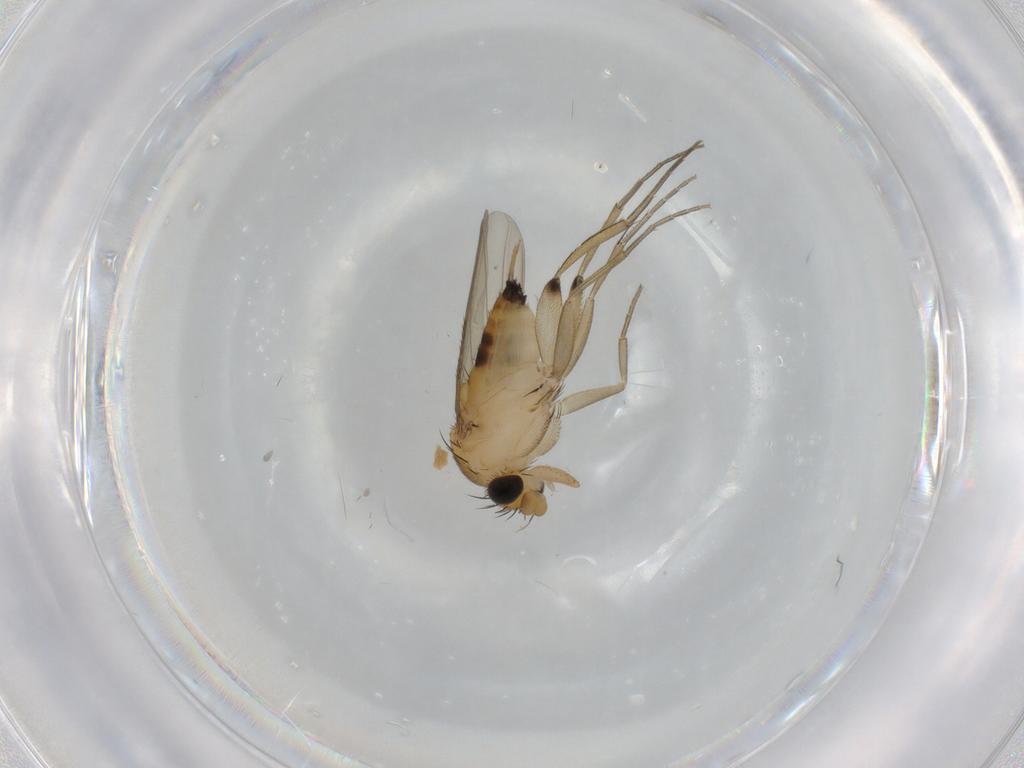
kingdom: Animalia
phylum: Arthropoda
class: Insecta
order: Diptera
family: Phoridae
